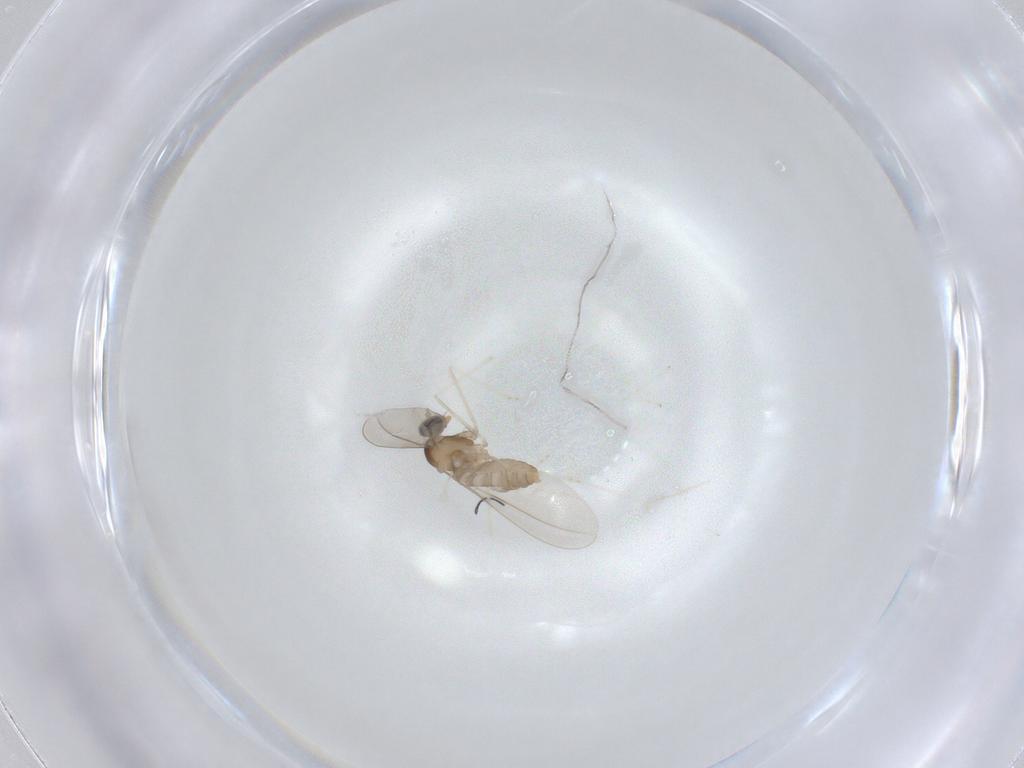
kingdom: Animalia
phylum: Arthropoda
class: Insecta
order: Diptera
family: Cecidomyiidae
